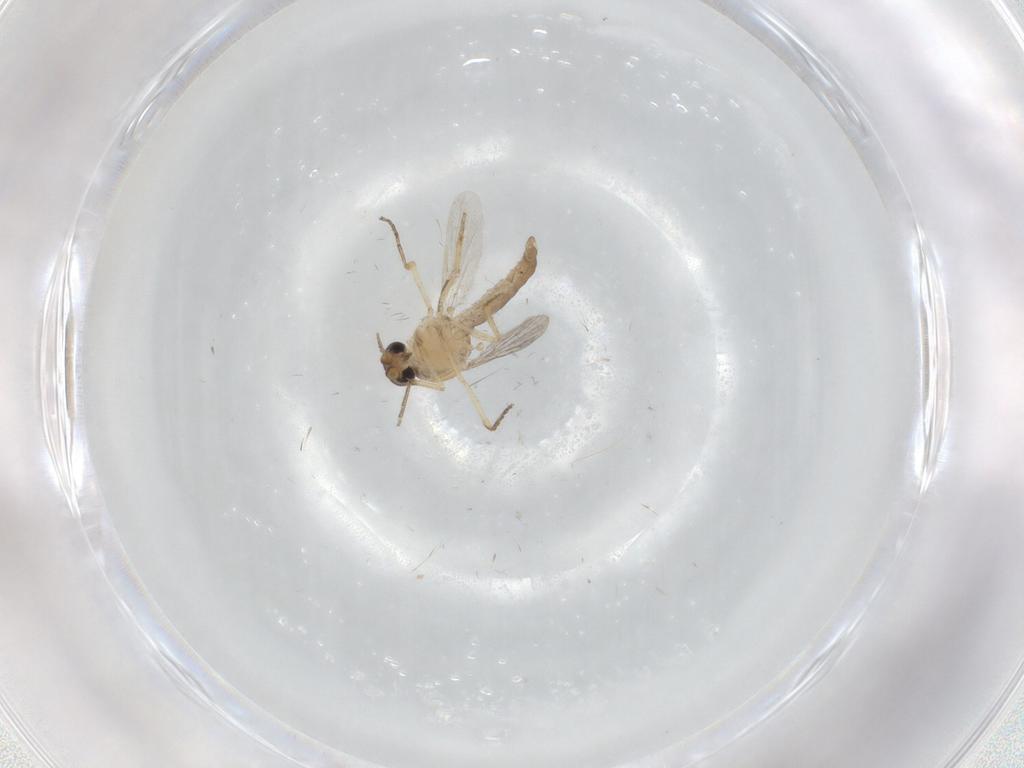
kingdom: Animalia
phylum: Arthropoda
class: Insecta
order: Diptera
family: Ceratopogonidae
